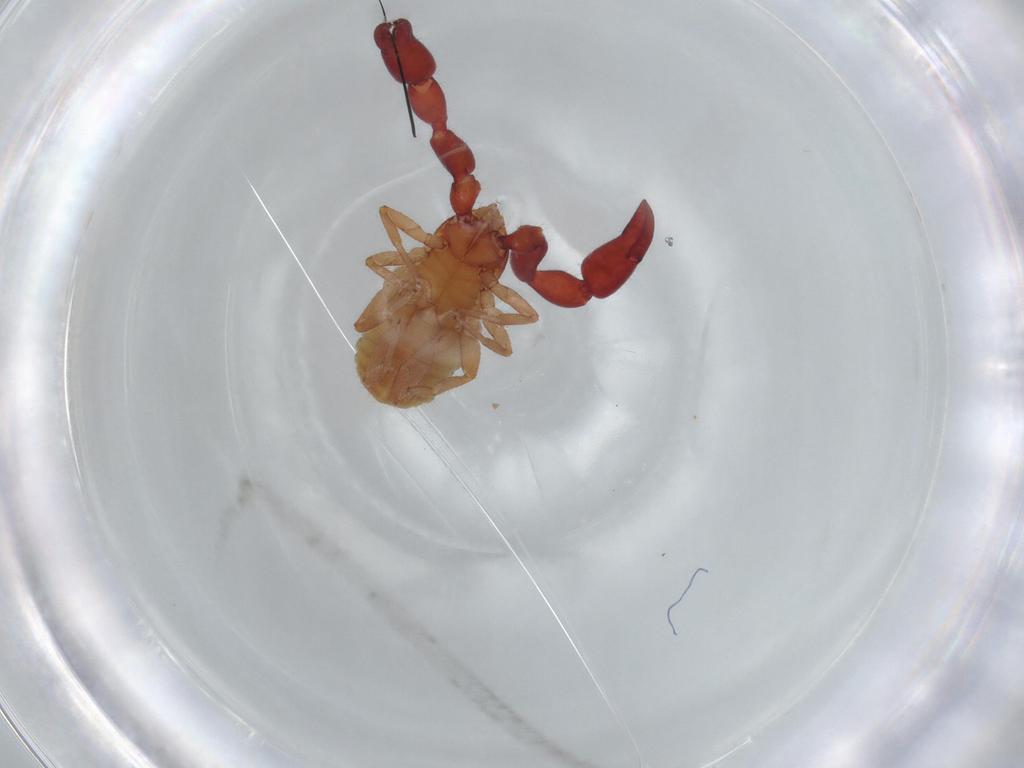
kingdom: Animalia
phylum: Arthropoda
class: Arachnida
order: Pseudoscorpiones
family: Chernetidae
